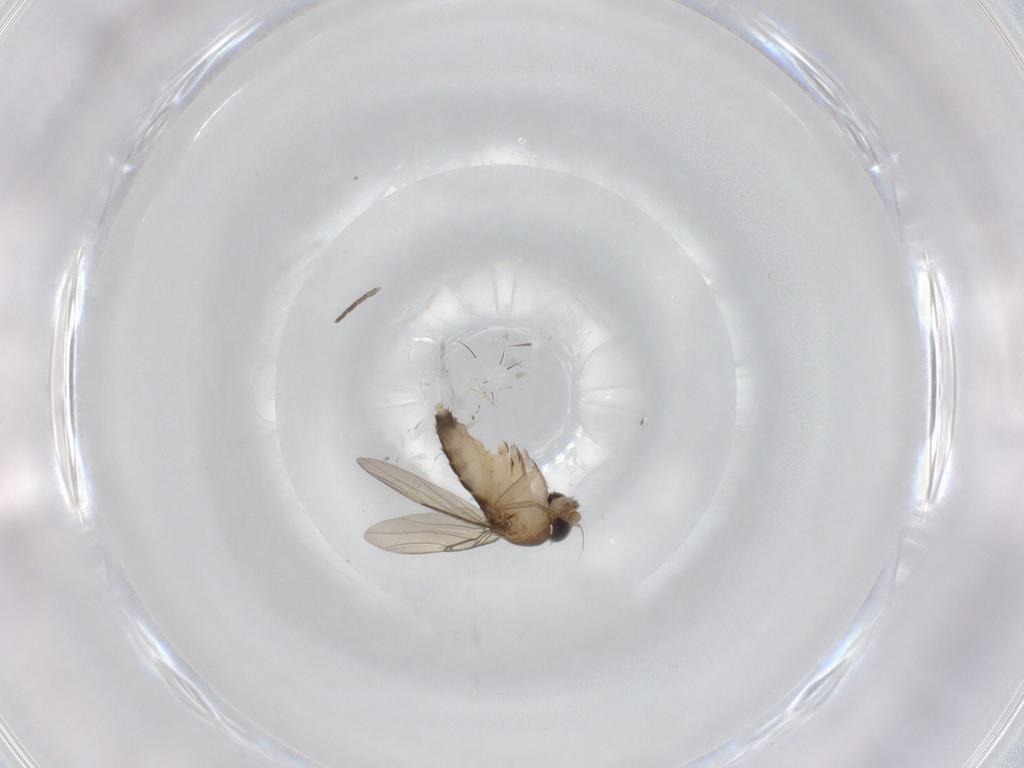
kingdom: Animalia
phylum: Arthropoda
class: Insecta
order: Diptera
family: Phoridae
